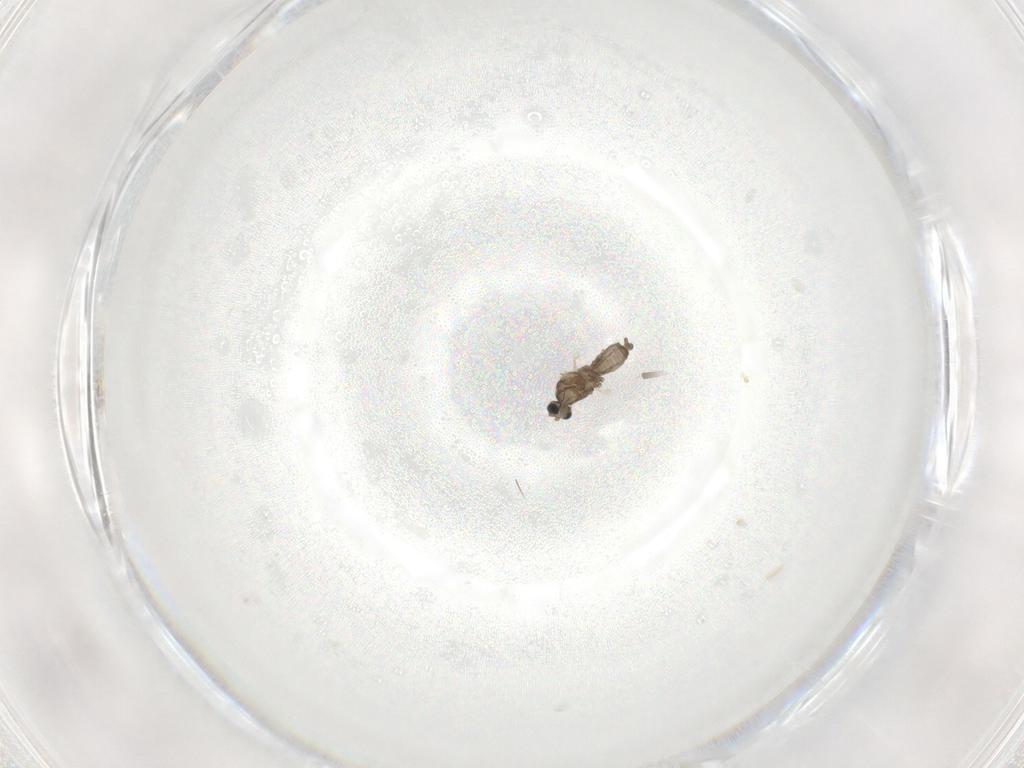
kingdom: Animalia
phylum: Arthropoda
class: Insecta
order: Diptera
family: Cecidomyiidae
